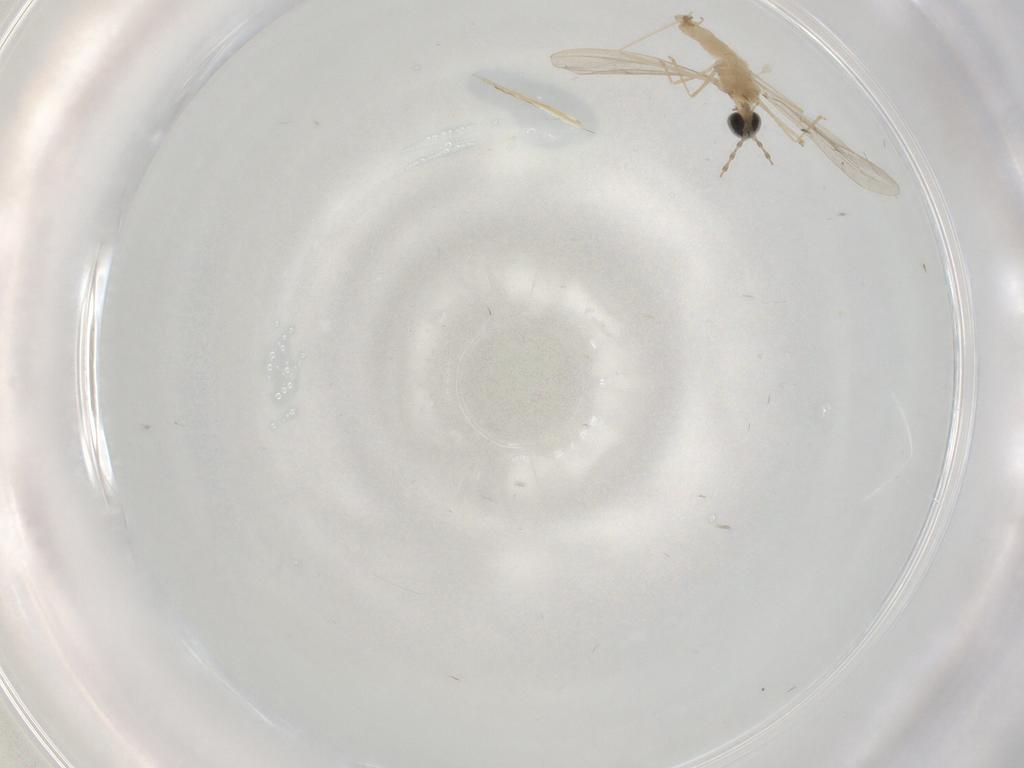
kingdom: Animalia
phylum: Arthropoda
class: Insecta
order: Diptera
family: Cecidomyiidae
